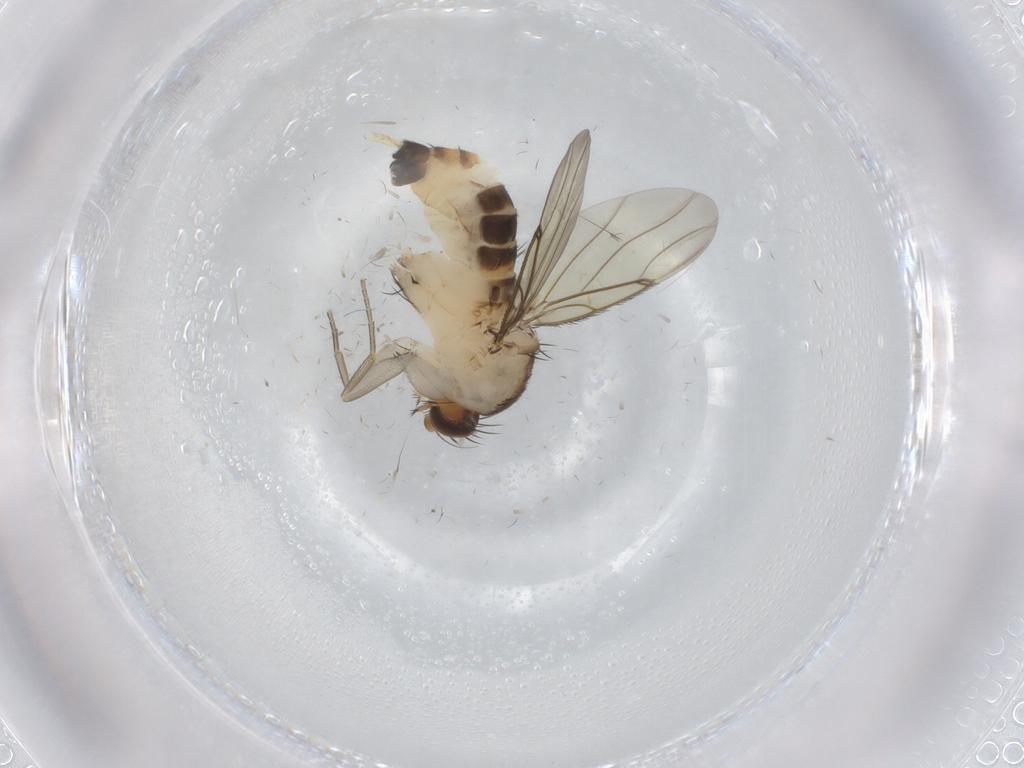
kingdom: Animalia
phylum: Arthropoda
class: Insecta
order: Diptera
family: Phoridae
